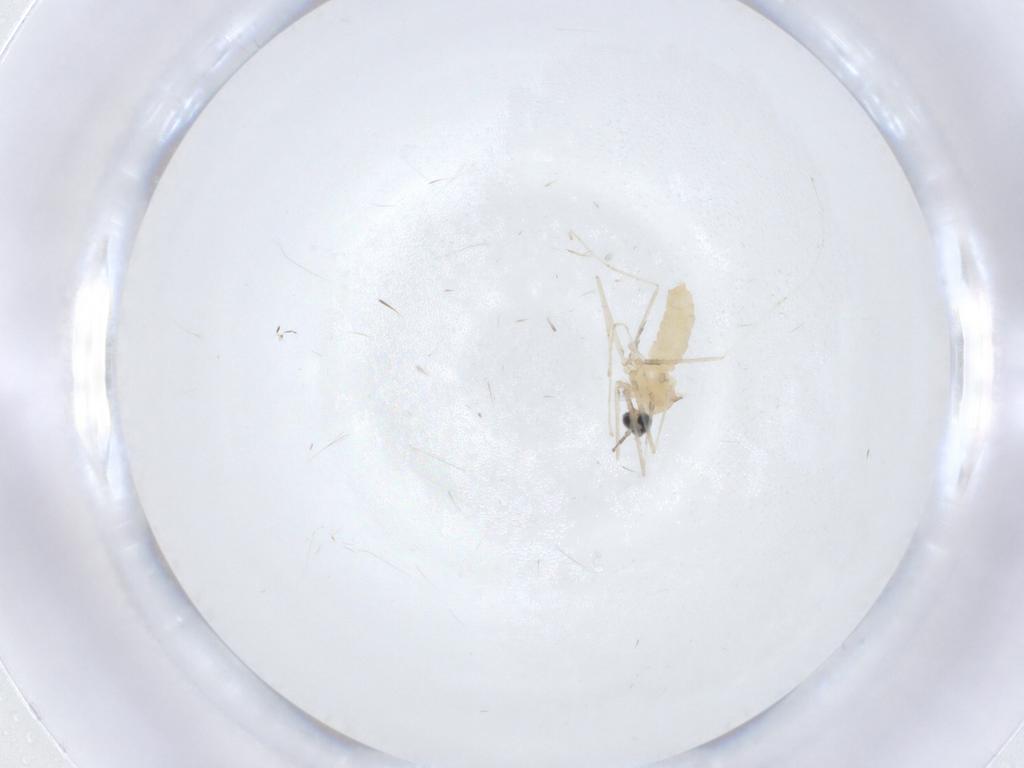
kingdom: Animalia
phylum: Arthropoda
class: Insecta
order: Diptera
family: Cecidomyiidae
